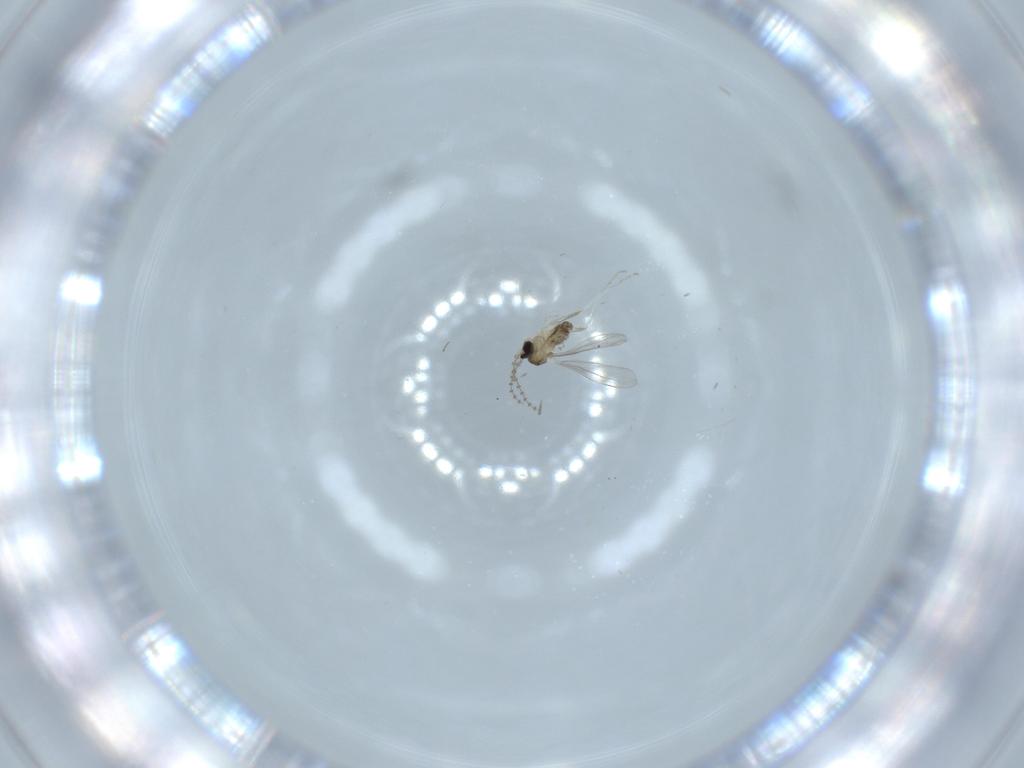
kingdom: Animalia
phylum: Arthropoda
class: Insecta
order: Diptera
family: Cecidomyiidae
